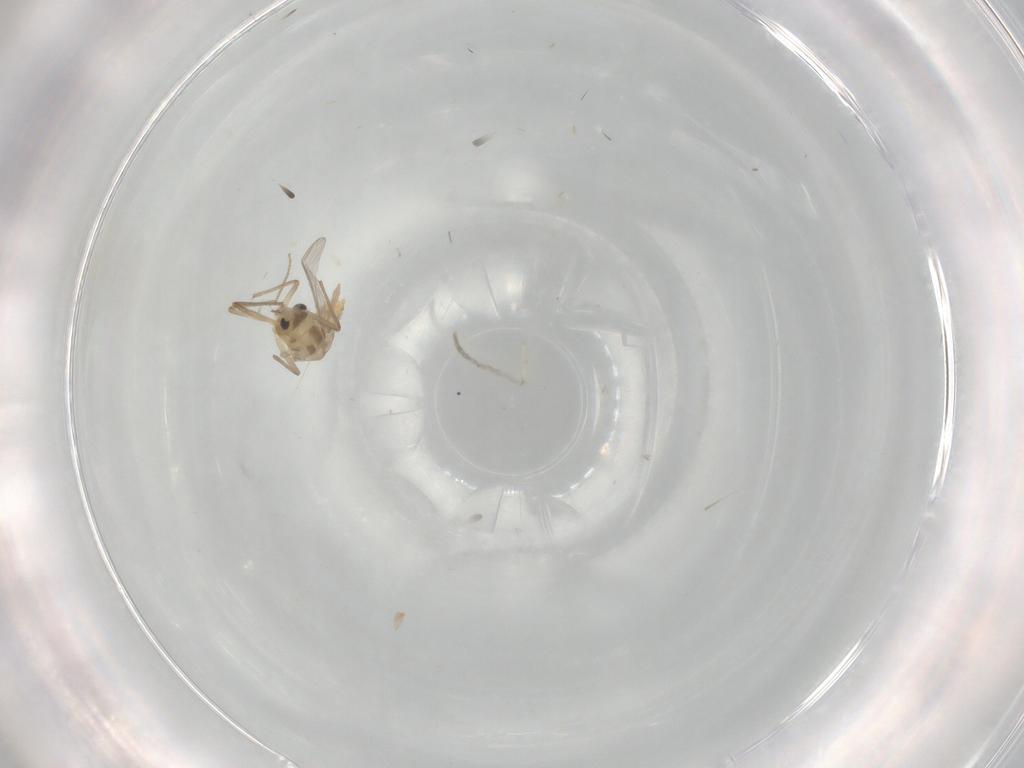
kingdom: Animalia
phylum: Arthropoda
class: Insecta
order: Diptera
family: Chironomidae
